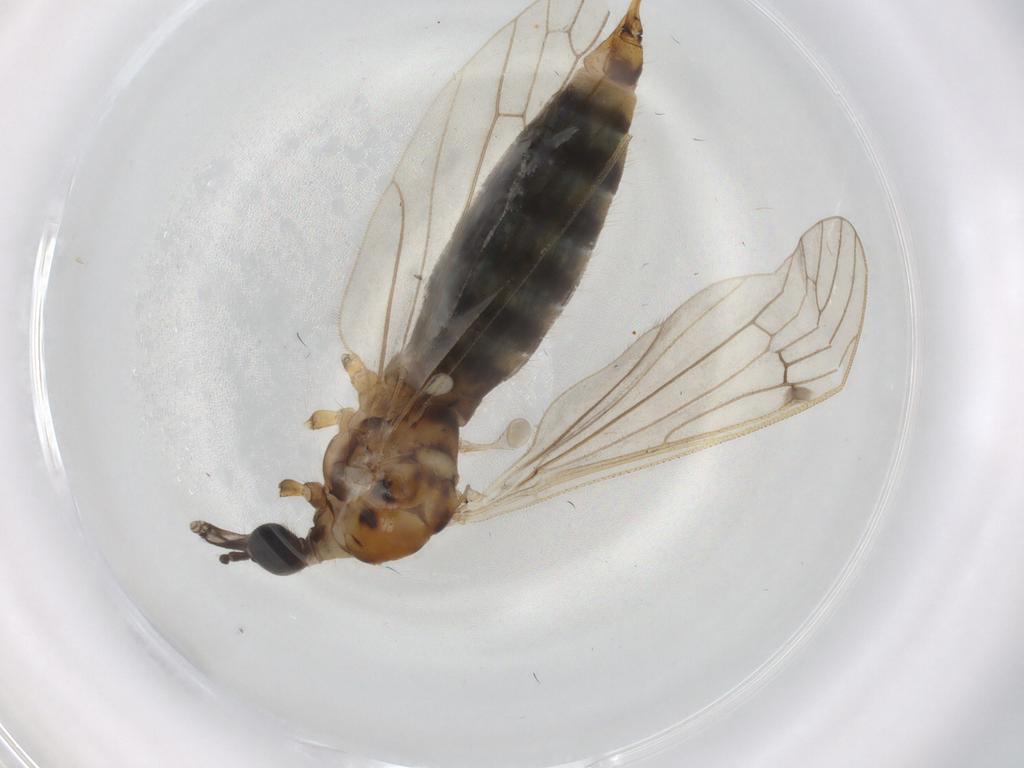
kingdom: Animalia
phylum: Arthropoda
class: Insecta
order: Diptera
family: Limoniidae
